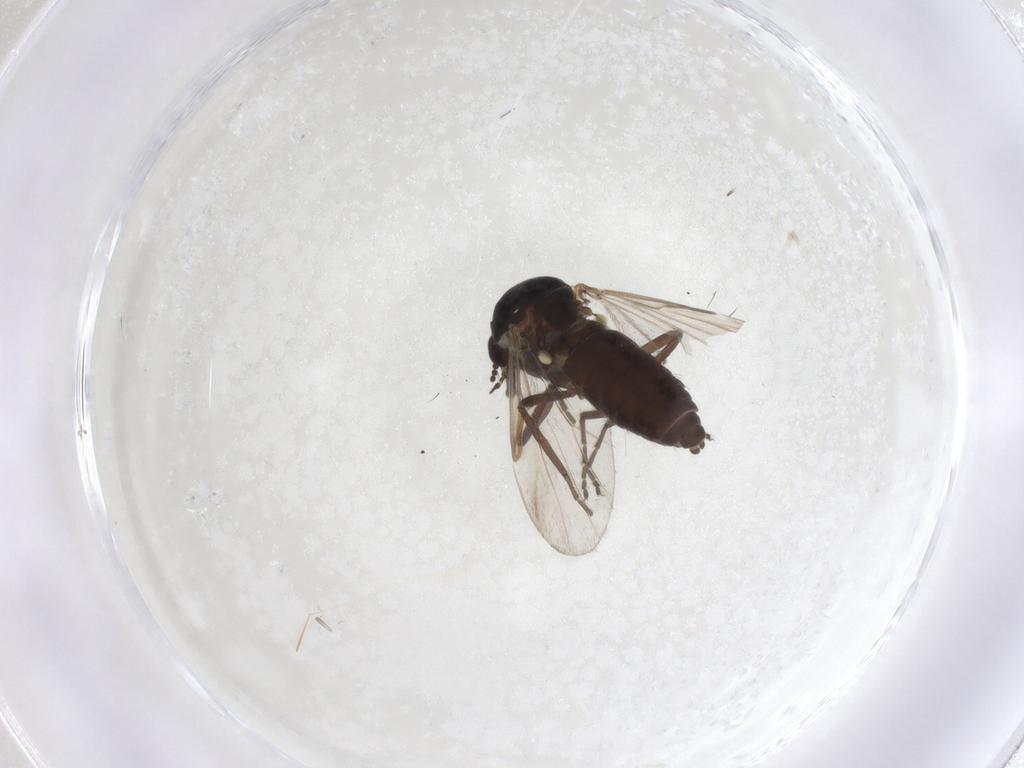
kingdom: Animalia
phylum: Arthropoda
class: Insecta
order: Diptera
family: Ceratopogonidae
